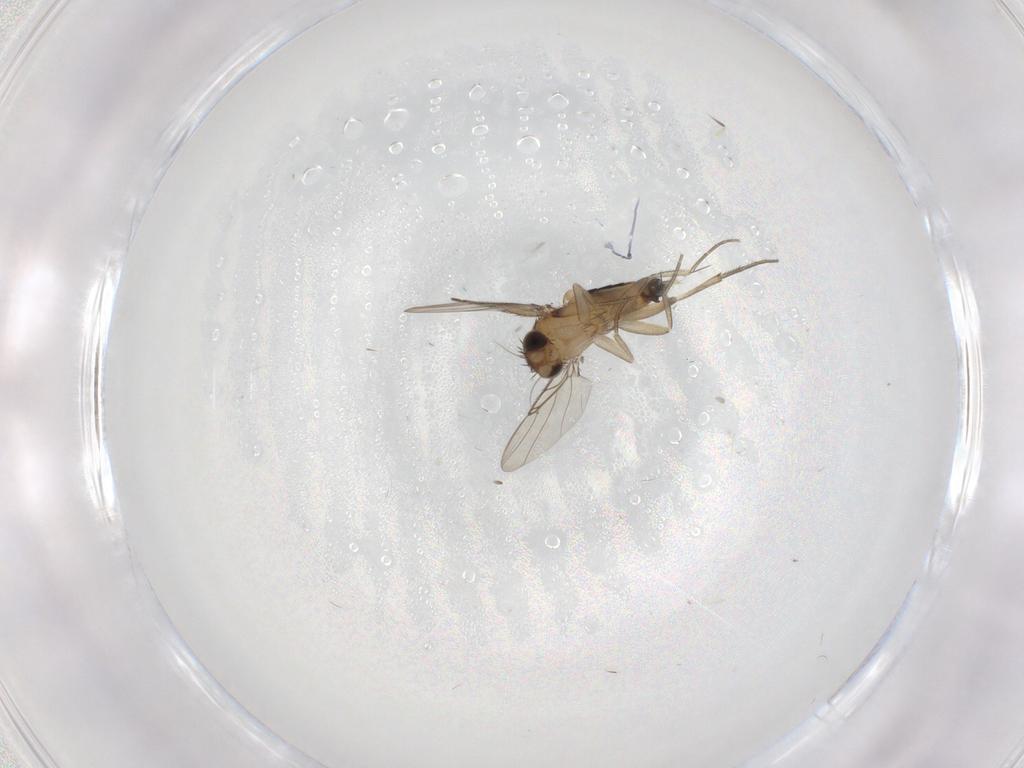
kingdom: Animalia
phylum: Arthropoda
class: Insecta
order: Diptera
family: Phoridae
